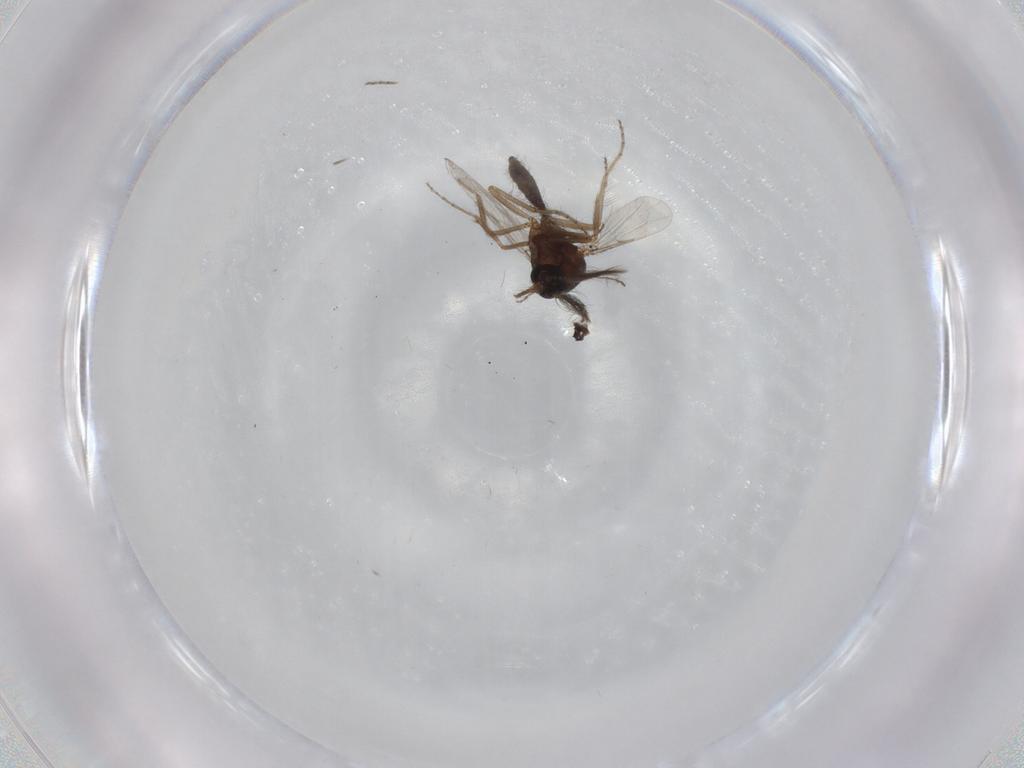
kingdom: Animalia
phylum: Arthropoda
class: Insecta
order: Diptera
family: Ceratopogonidae
